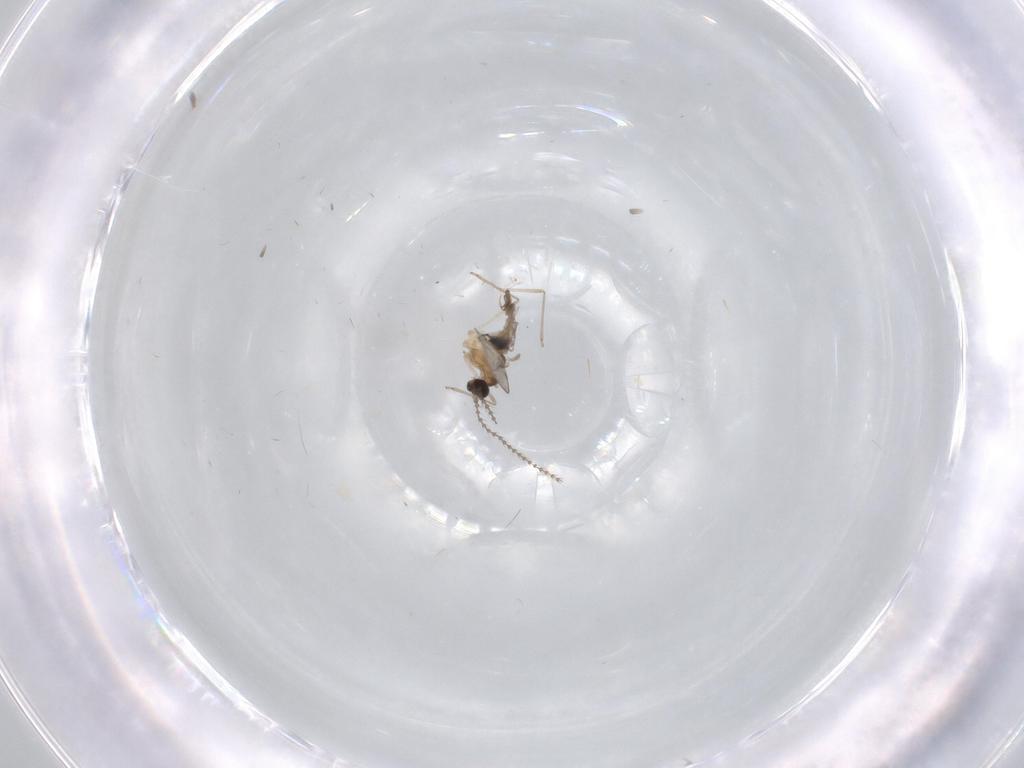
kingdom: Animalia
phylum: Arthropoda
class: Insecta
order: Diptera
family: Cecidomyiidae
